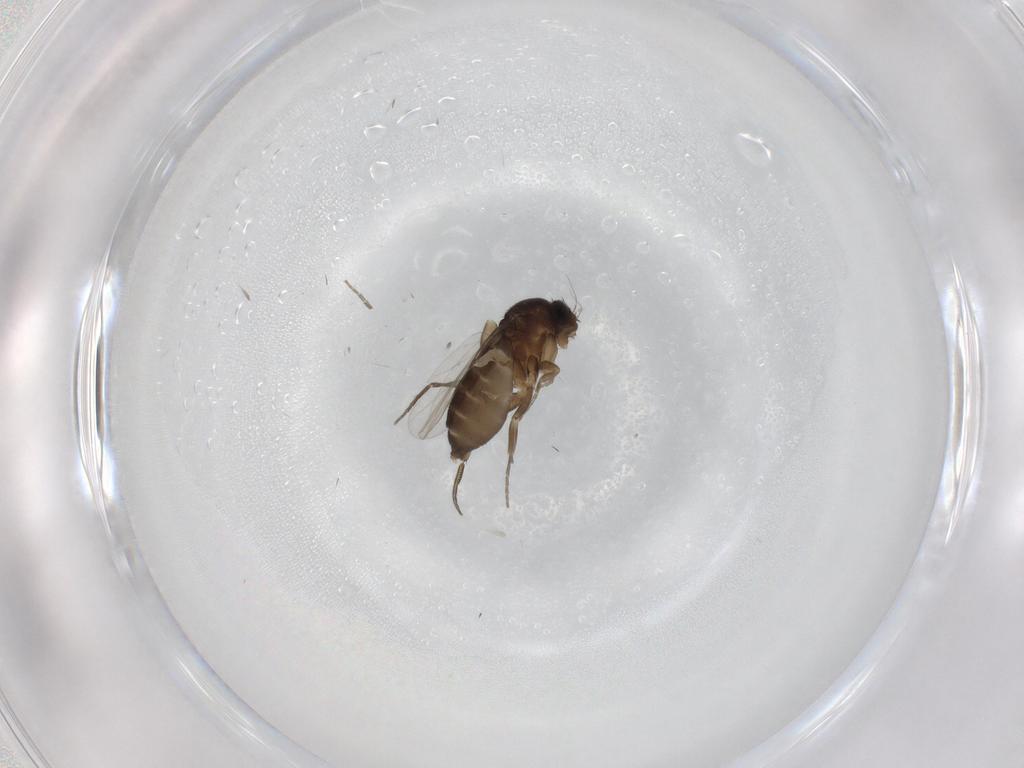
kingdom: Animalia
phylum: Arthropoda
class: Insecta
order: Diptera
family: Phoridae
